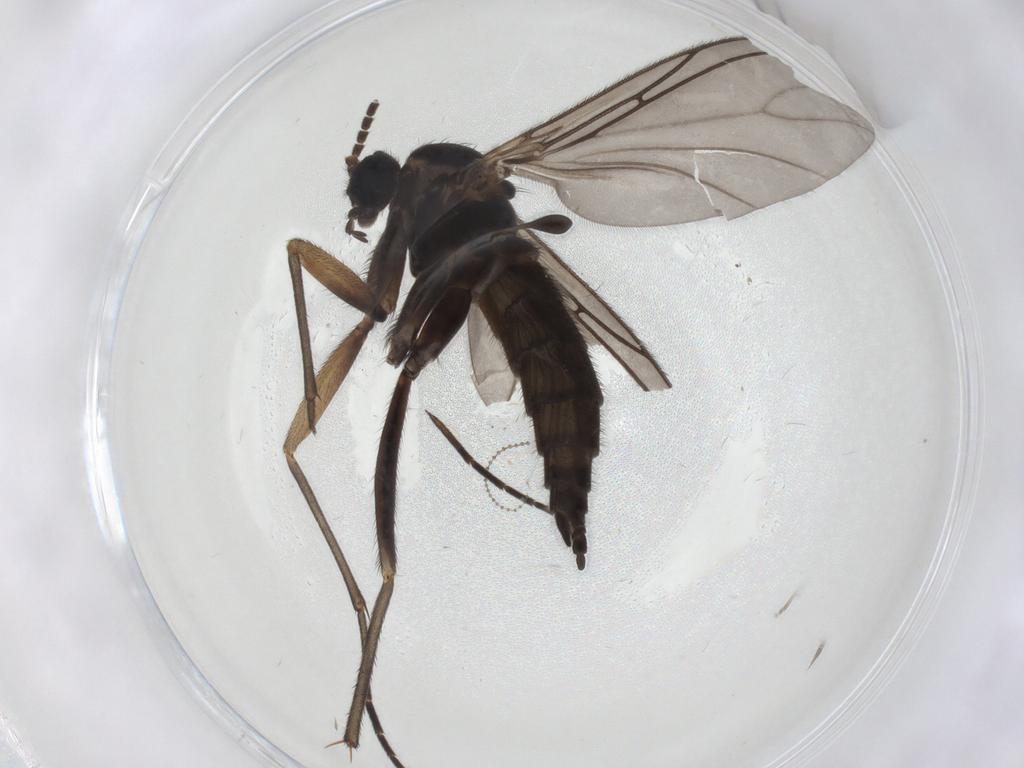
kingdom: Animalia
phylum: Arthropoda
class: Insecta
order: Diptera
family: Sciaridae
